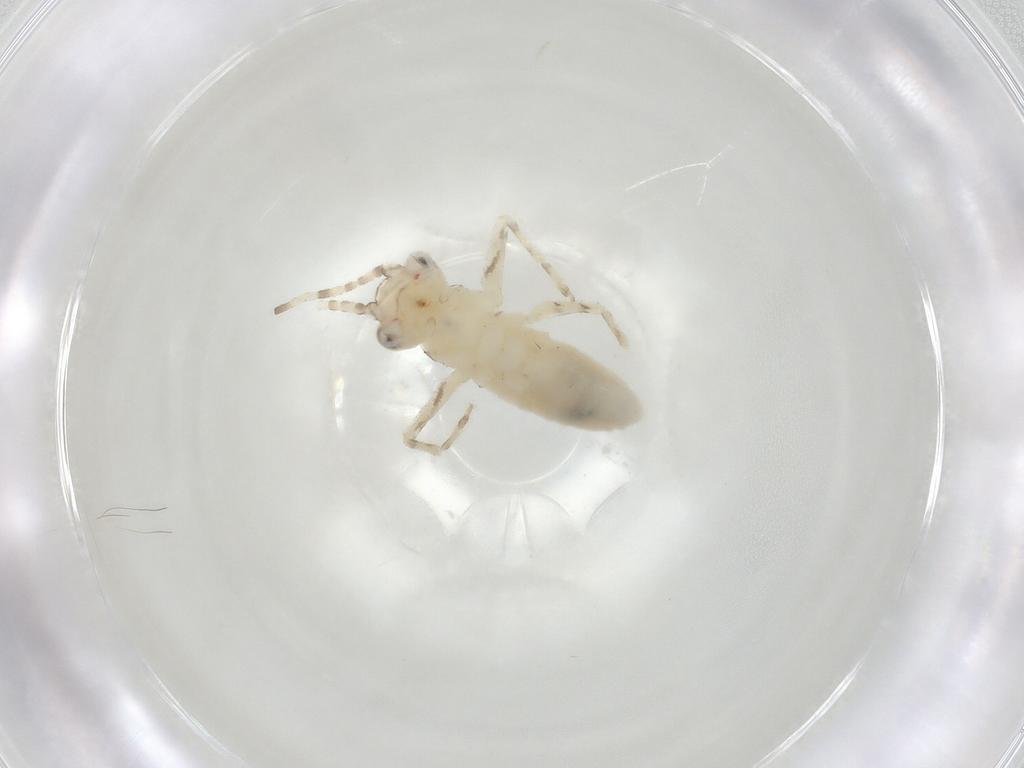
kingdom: Animalia
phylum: Arthropoda
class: Insecta
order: Orthoptera
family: Trigonidiidae
